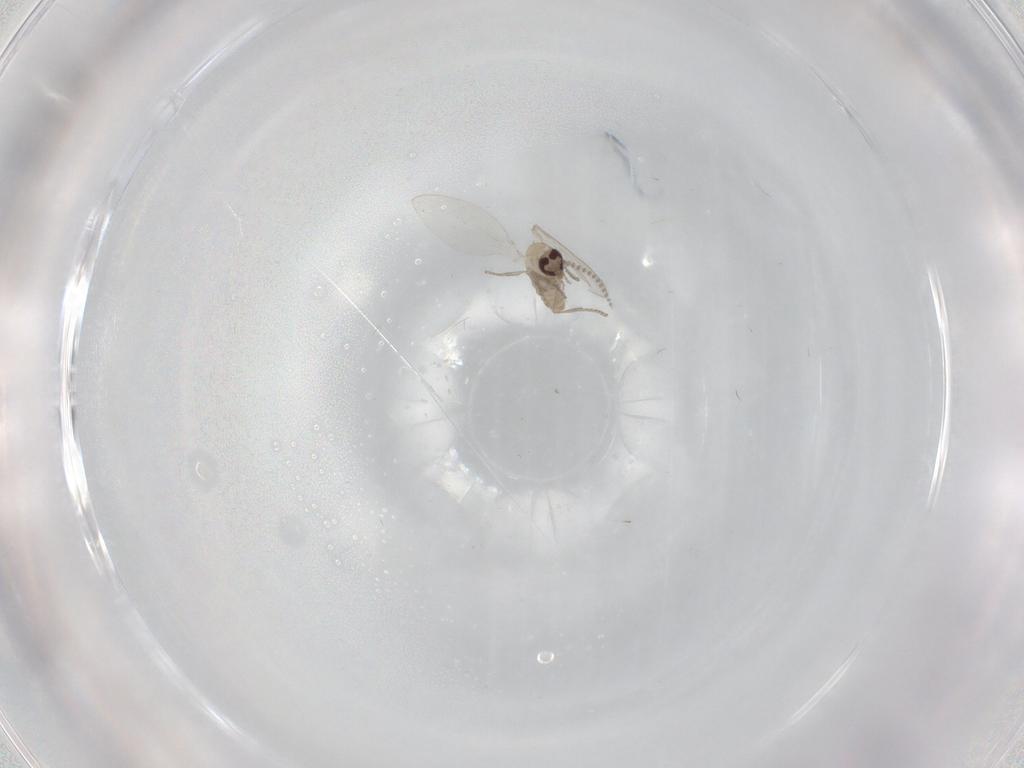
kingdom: Animalia
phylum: Arthropoda
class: Insecta
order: Diptera
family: Psychodidae
